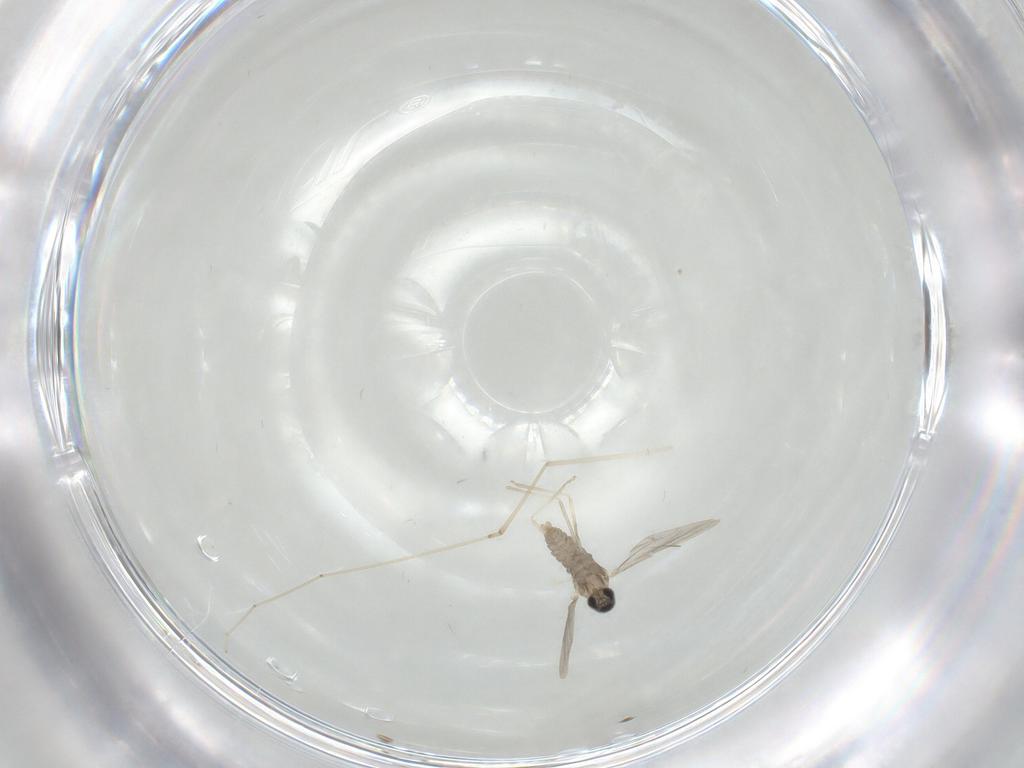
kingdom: Animalia
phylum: Arthropoda
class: Insecta
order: Diptera
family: Cecidomyiidae
